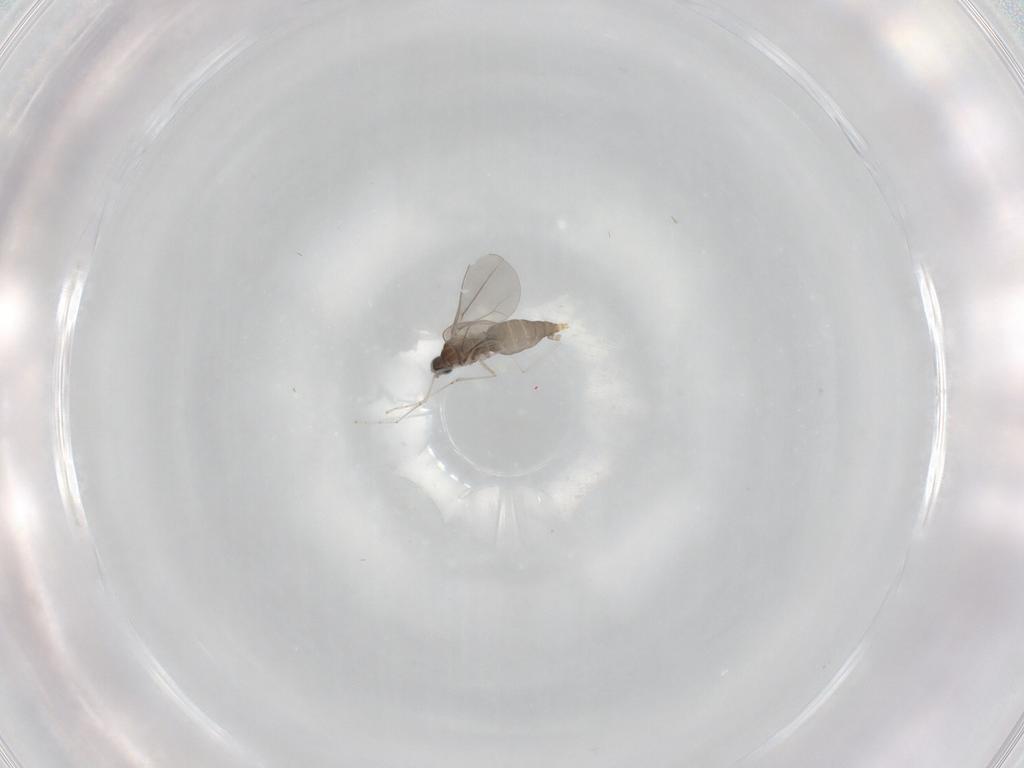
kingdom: Animalia
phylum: Arthropoda
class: Insecta
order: Diptera
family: Cecidomyiidae
